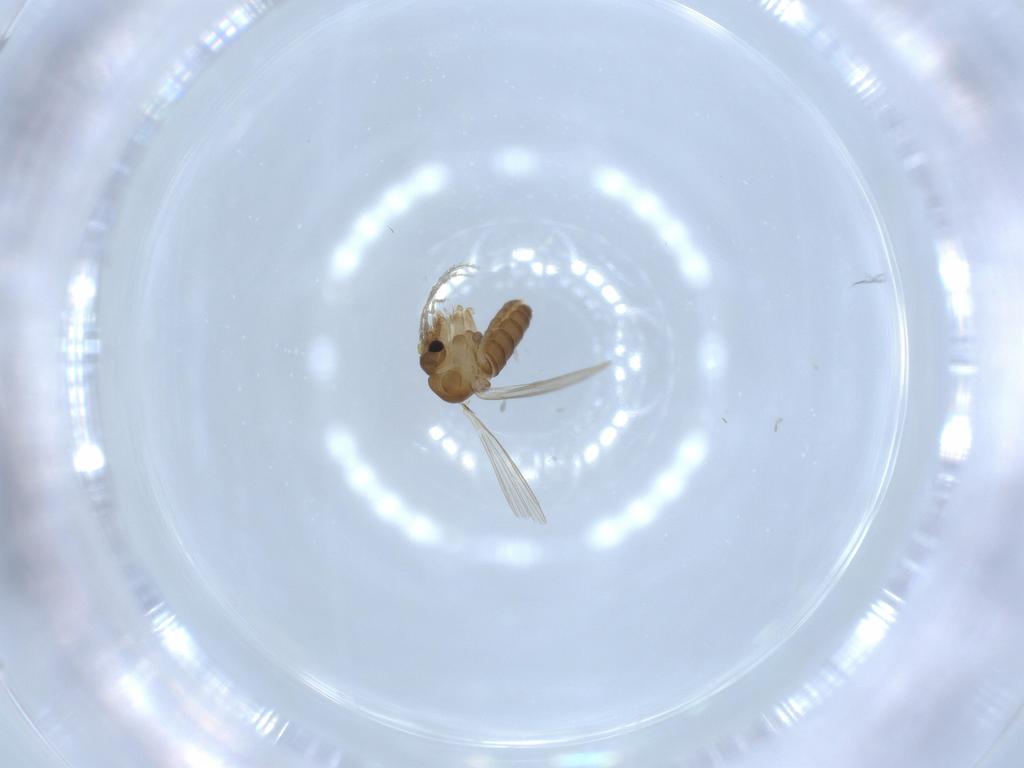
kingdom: Animalia
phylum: Arthropoda
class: Insecta
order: Diptera
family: Psychodidae
